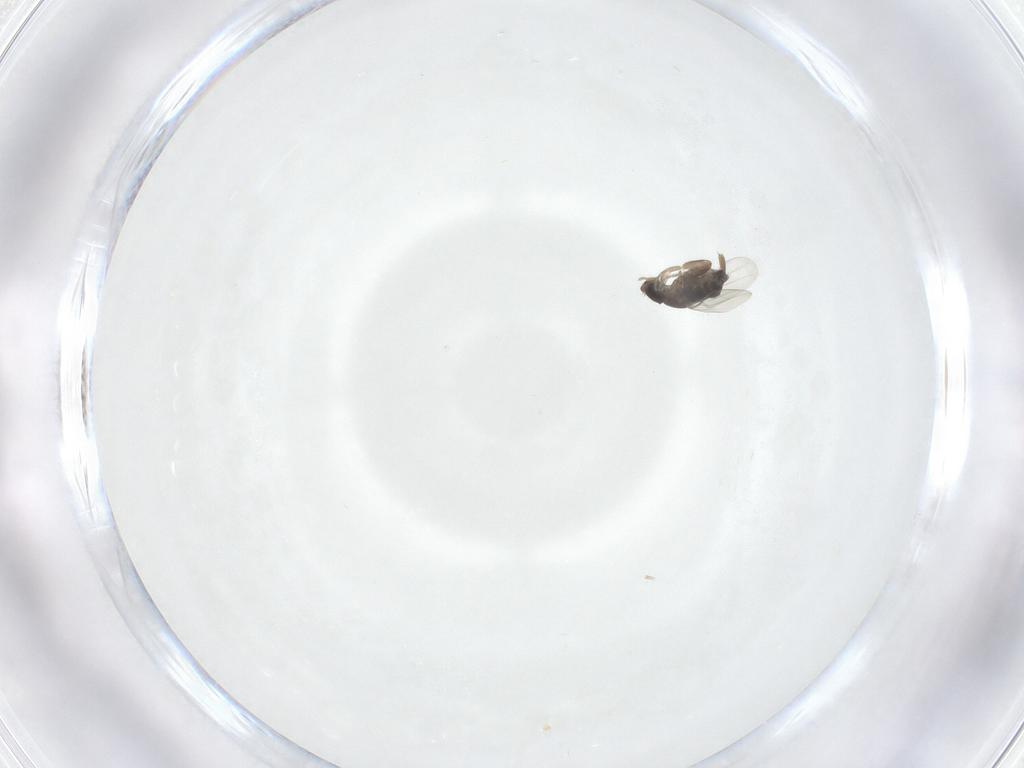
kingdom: Animalia
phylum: Arthropoda
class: Insecta
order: Diptera
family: Phoridae
